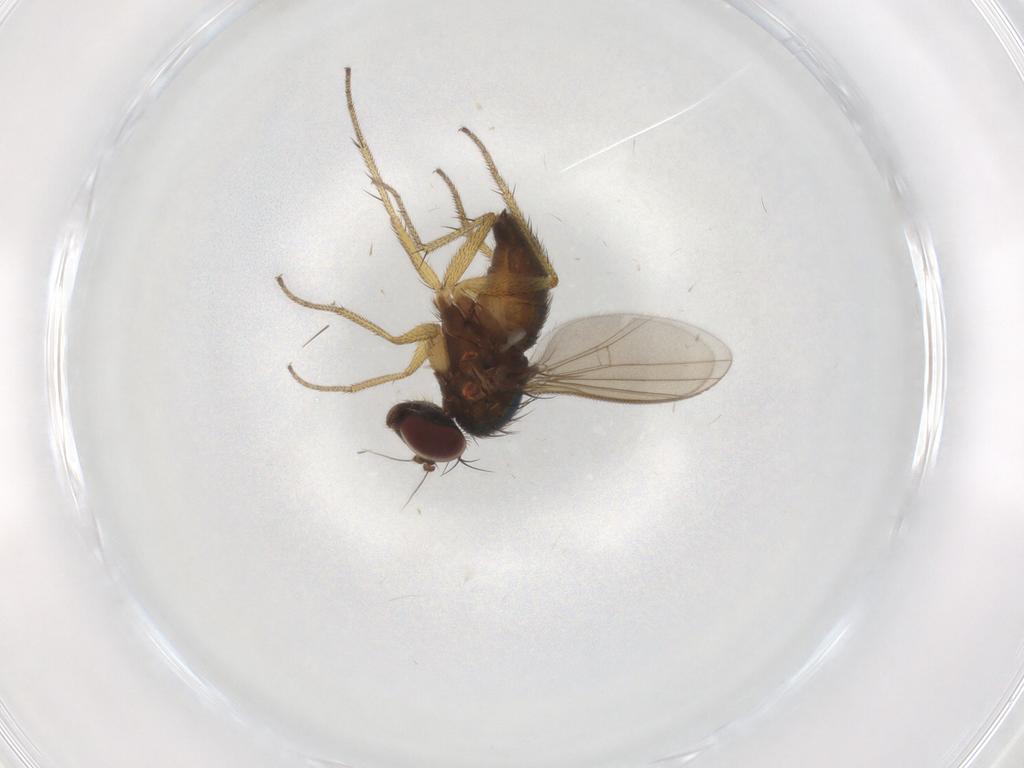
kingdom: Animalia
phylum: Arthropoda
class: Insecta
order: Diptera
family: Dolichopodidae
